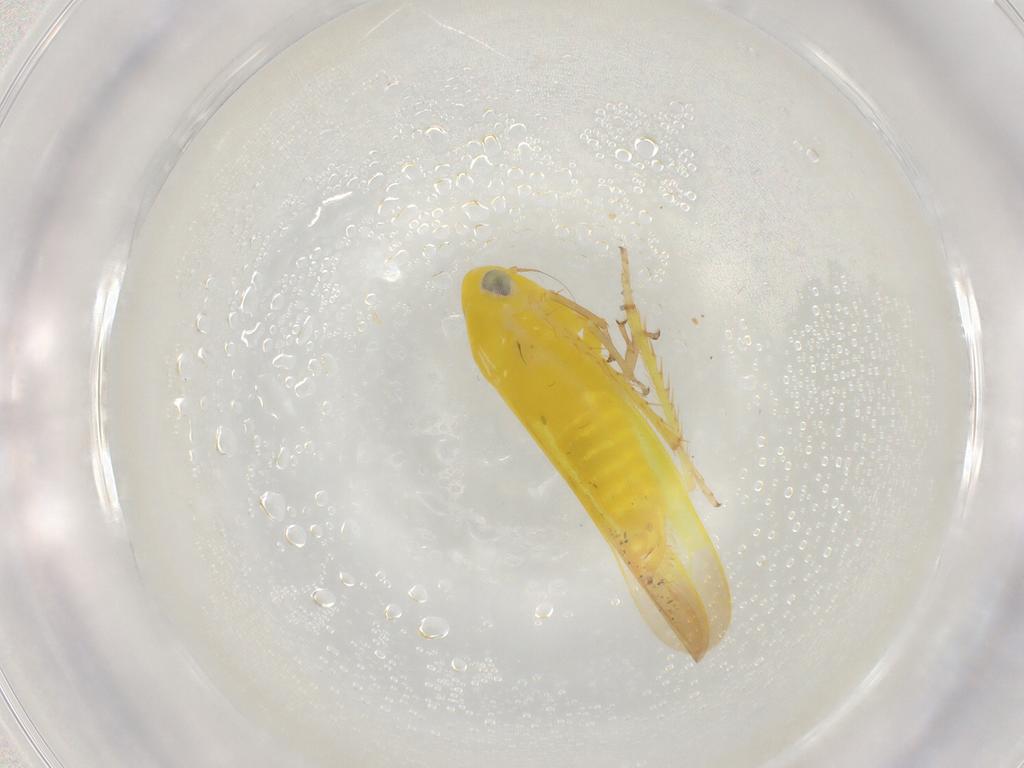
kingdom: Animalia
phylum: Arthropoda
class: Insecta
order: Hemiptera
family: Cicadellidae
